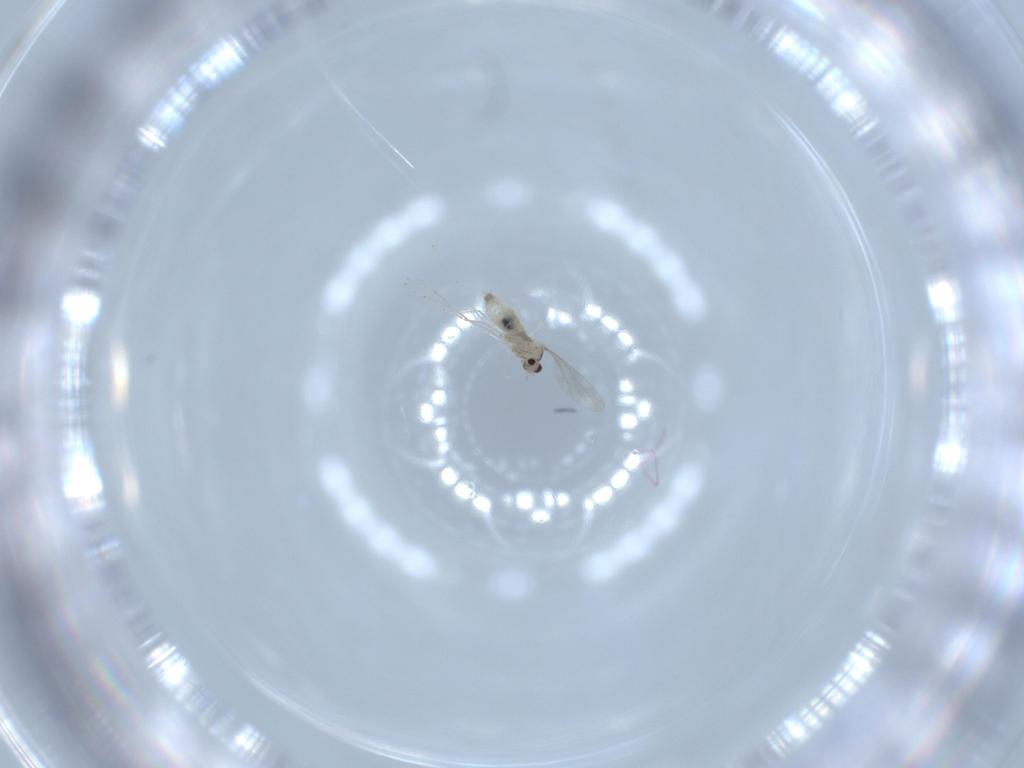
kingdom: Animalia
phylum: Arthropoda
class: Insecta
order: Diptera
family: Cecidomyiidae
